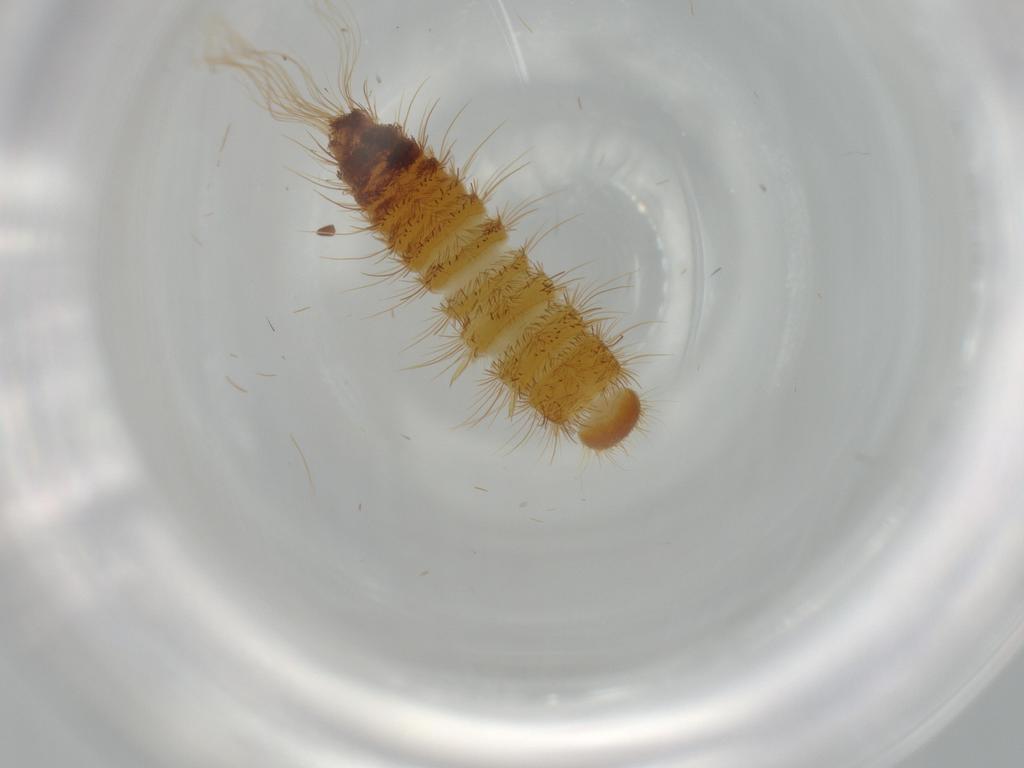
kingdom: Animalia
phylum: Arthropoda
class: Insecta
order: Coleoptera
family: Dermestidae
